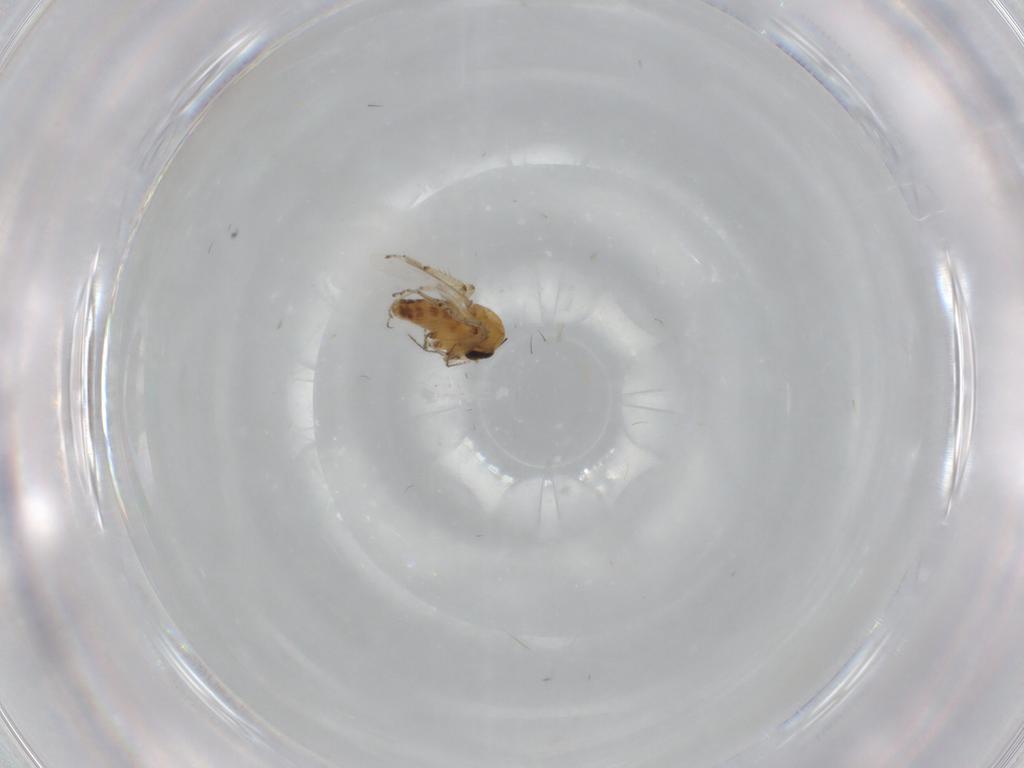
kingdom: Animalia
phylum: Arthropoda
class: Insecta
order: Diptera
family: Ceratopogonidae
